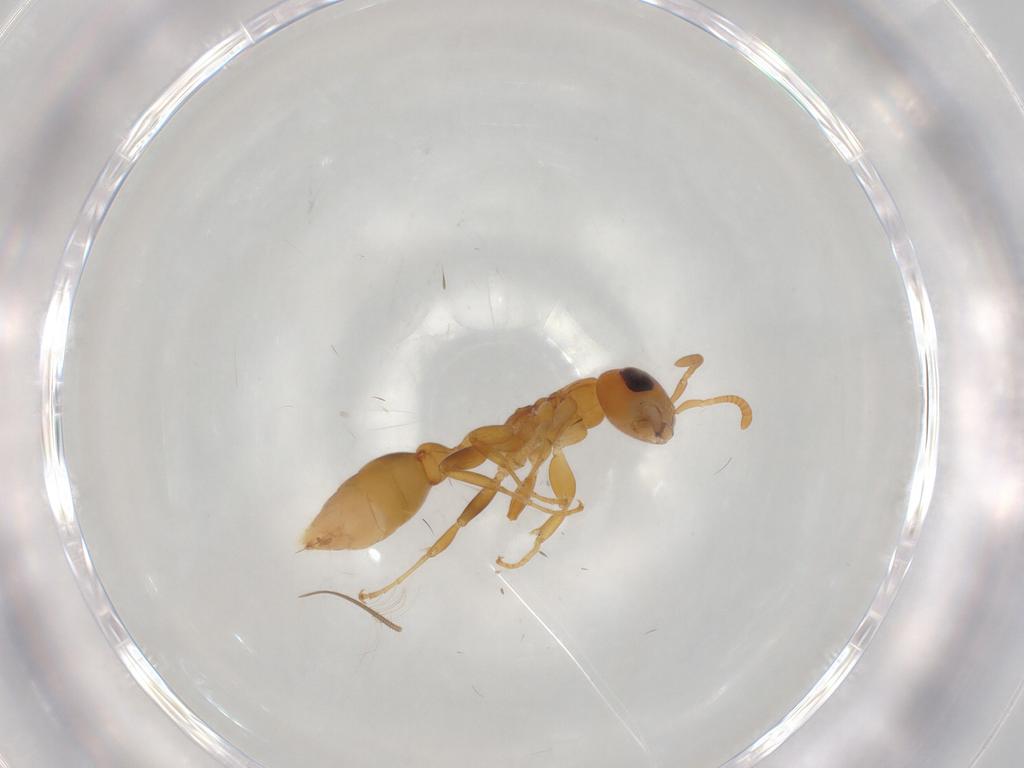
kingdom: Animalia
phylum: Arthropoda
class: Insecta
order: Hymenoptera
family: Formicidae
